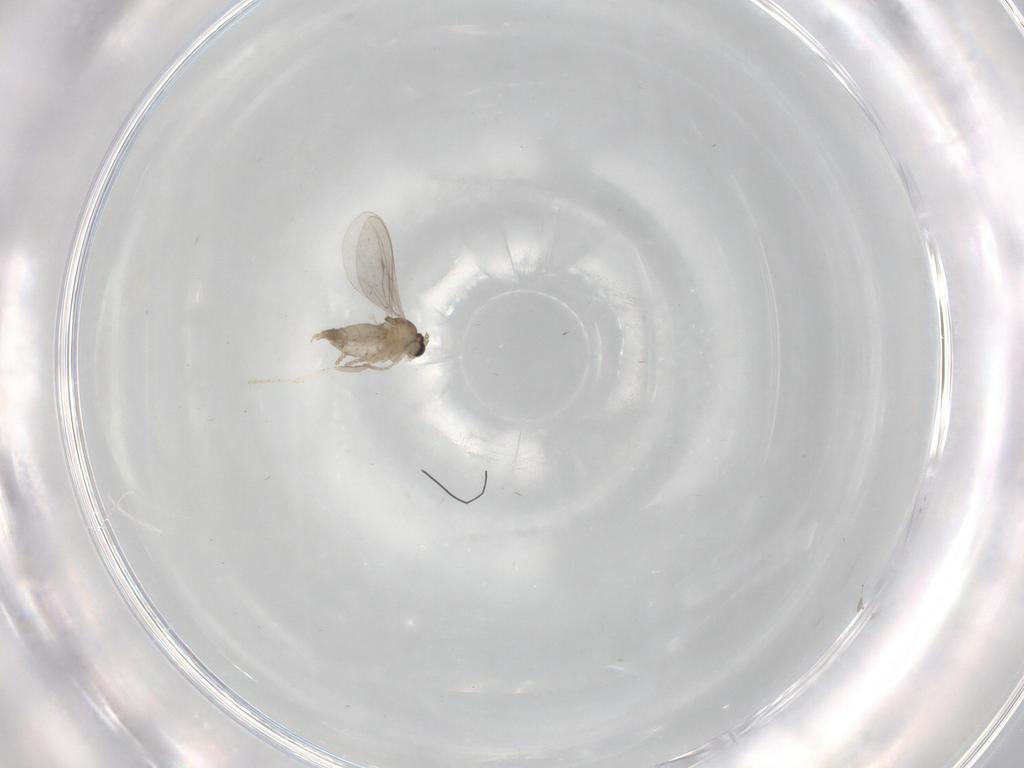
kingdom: Animalia
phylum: Arthropoda
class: Insecta
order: Diptera
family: Cecidomyiidae
